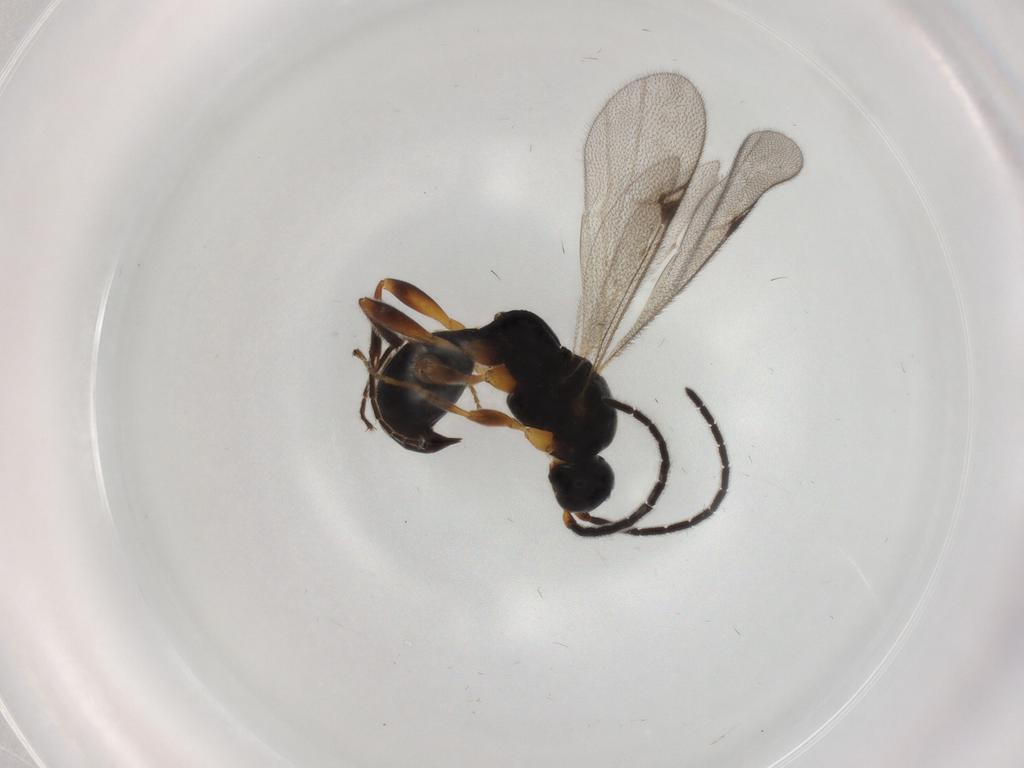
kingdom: Animalia
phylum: Arthropoda
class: Insecta
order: Hymenoptera
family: Proctotrupidae
